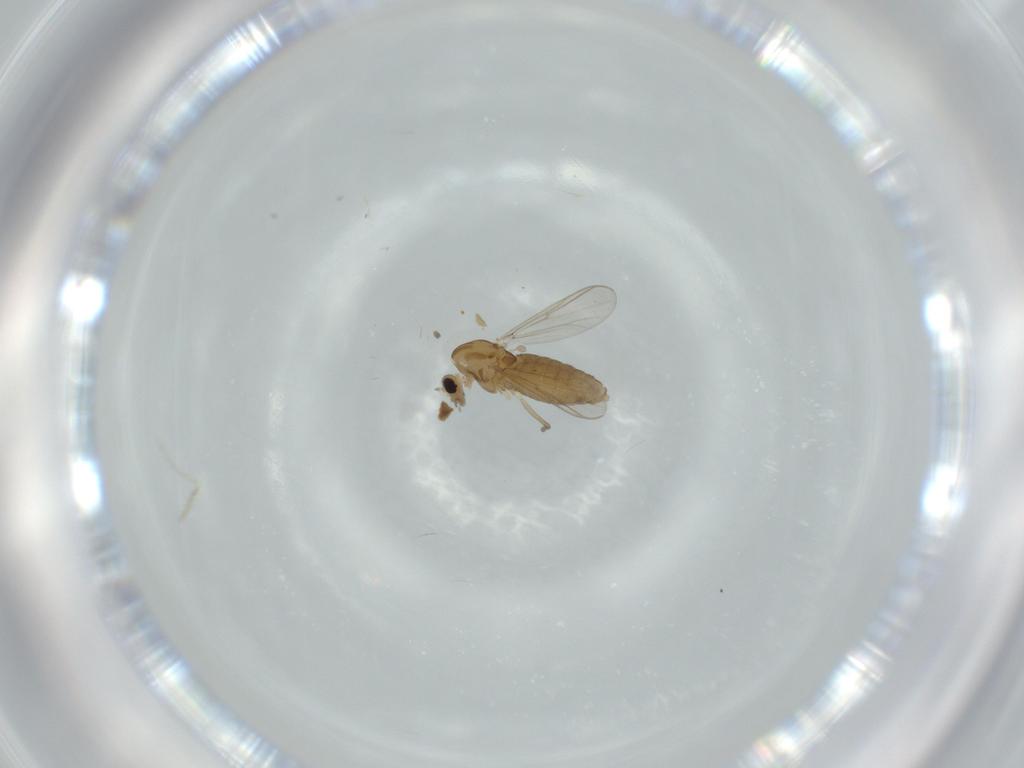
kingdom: Animalia
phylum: Arthropoda
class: Insecta
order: Diptera
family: Chironomidae
